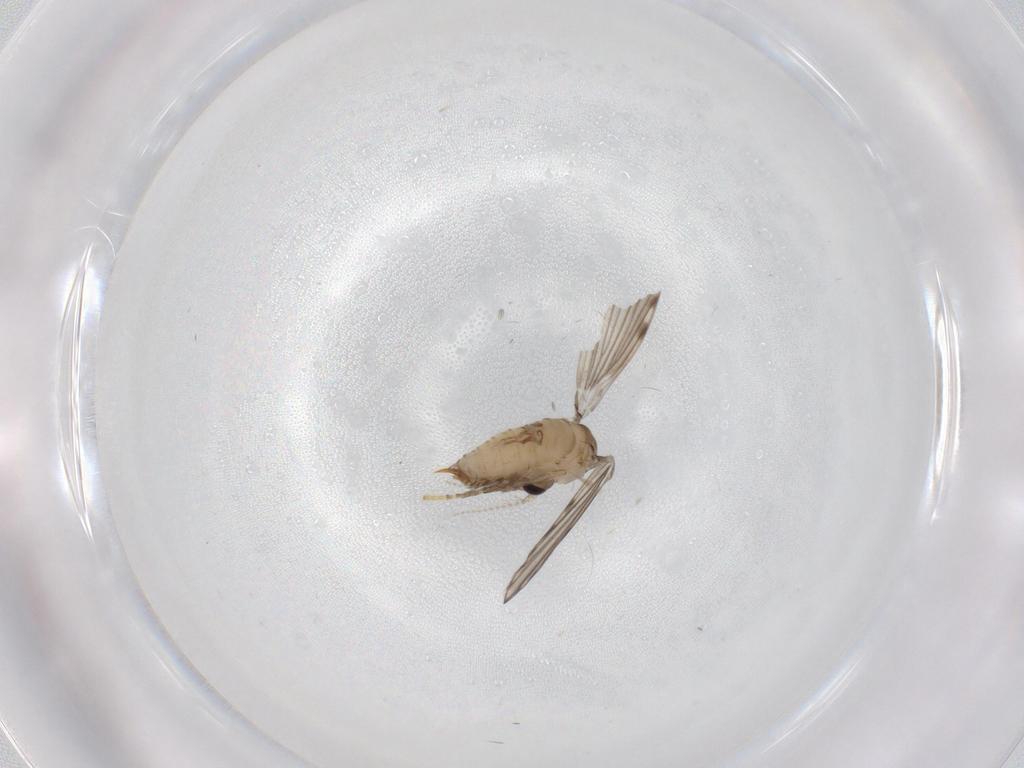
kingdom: Animalia
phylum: Arthropoda
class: Insecta
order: Diptera
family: Psychodidae
